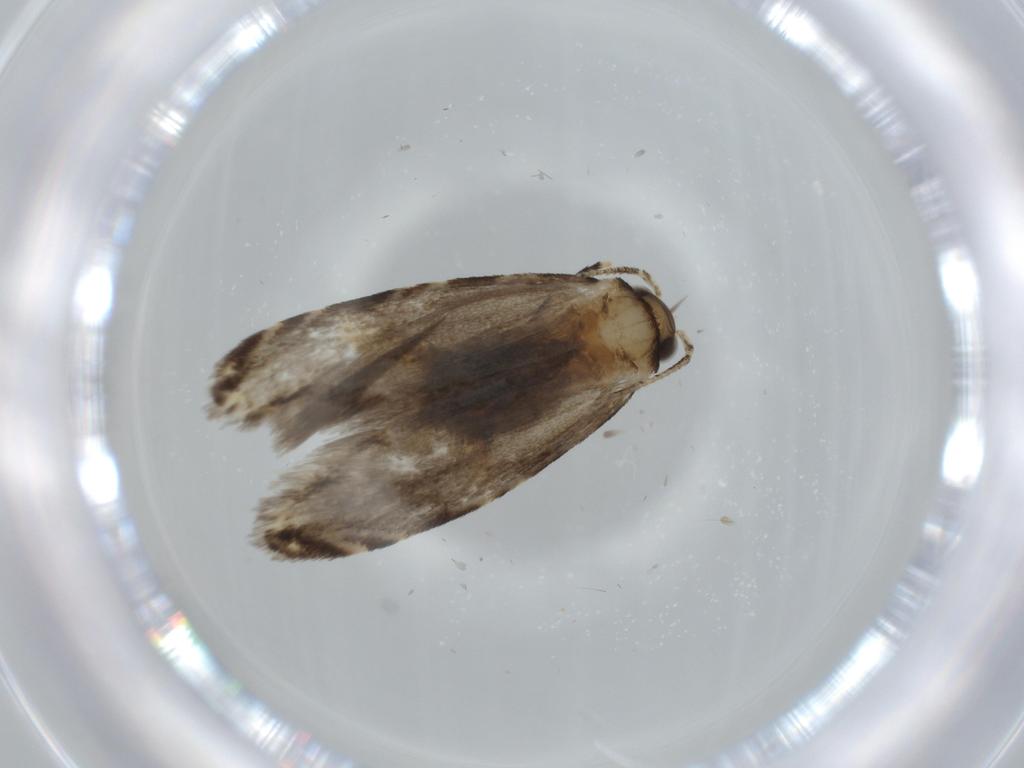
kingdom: Animalia
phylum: Arthropoda
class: Insecta
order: Lepidoptera
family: Tineidae
